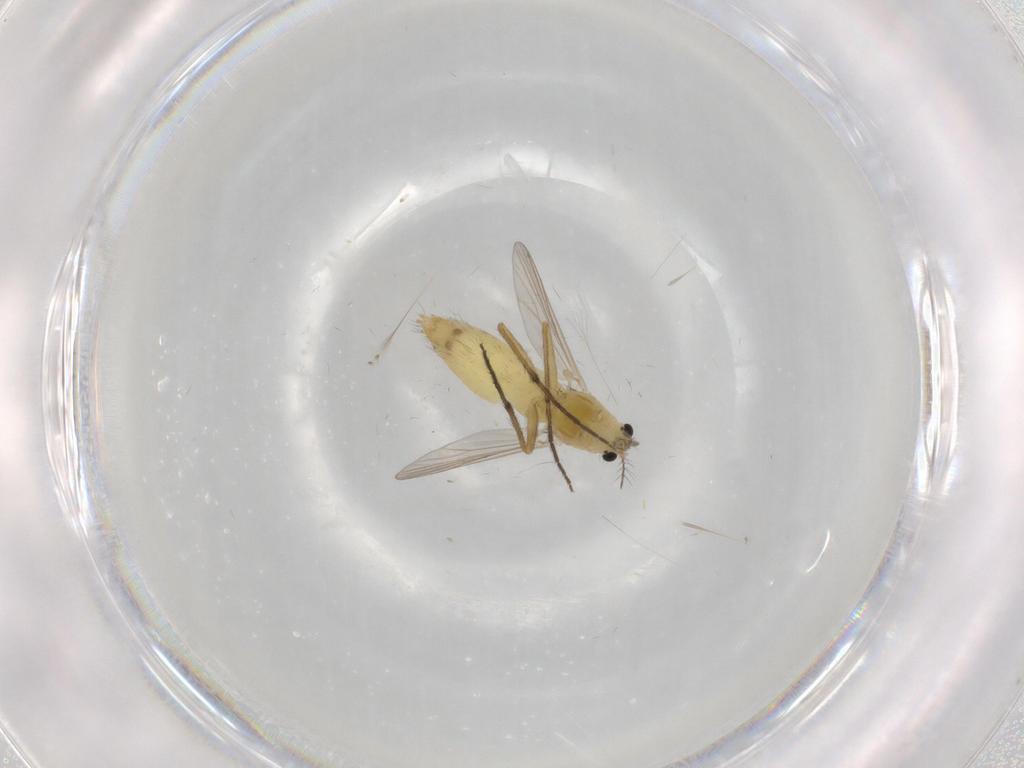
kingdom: Animalia
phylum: Arthropoda
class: Insecta
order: Diptera
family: Chironomidae
